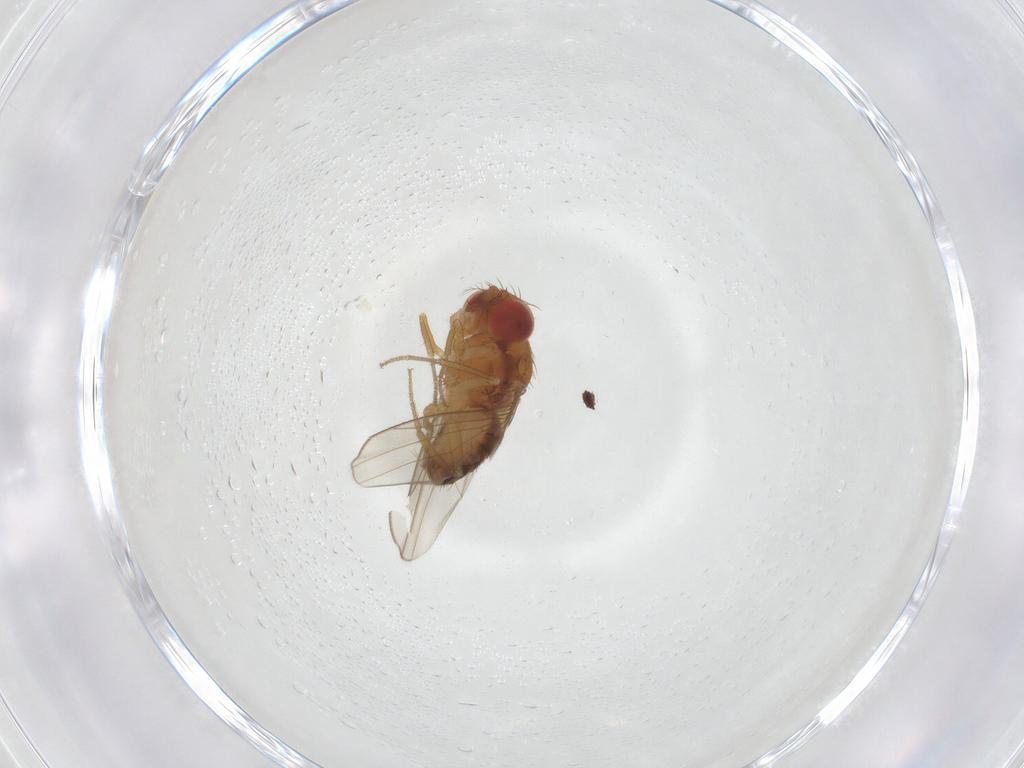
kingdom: Animalia
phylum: Arthropoda
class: Insecta
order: Diptera
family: Drosophilidae
